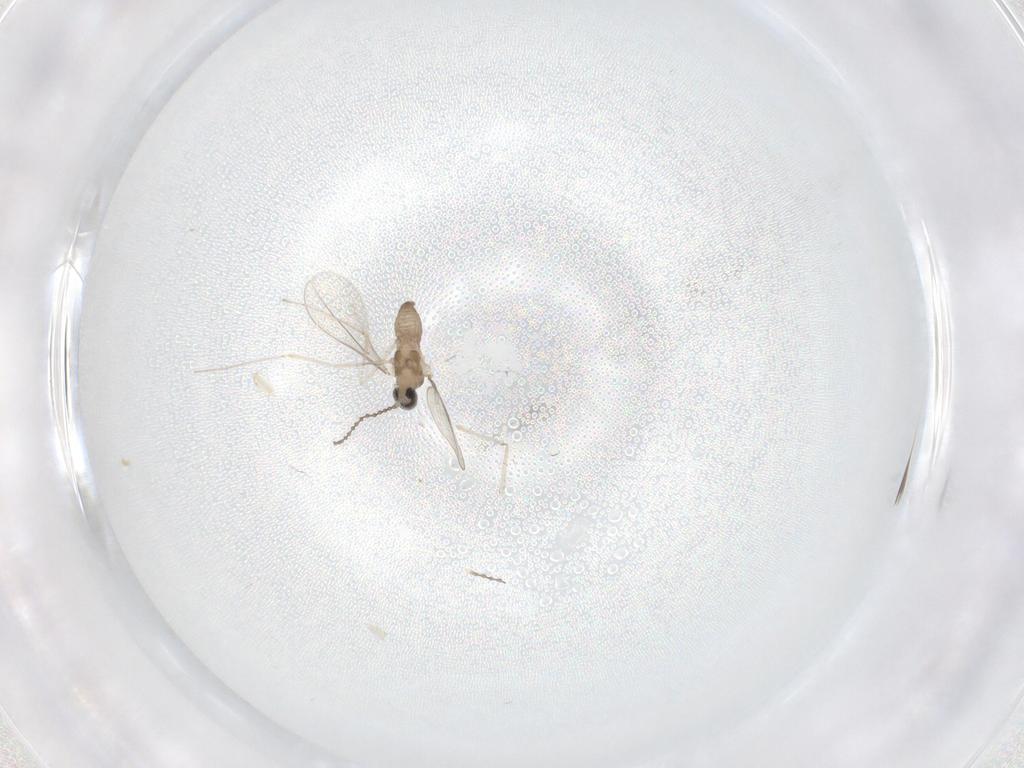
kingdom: Animalia
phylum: Arthropoda
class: Insecta
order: Diptera
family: Cecidomyiidae
